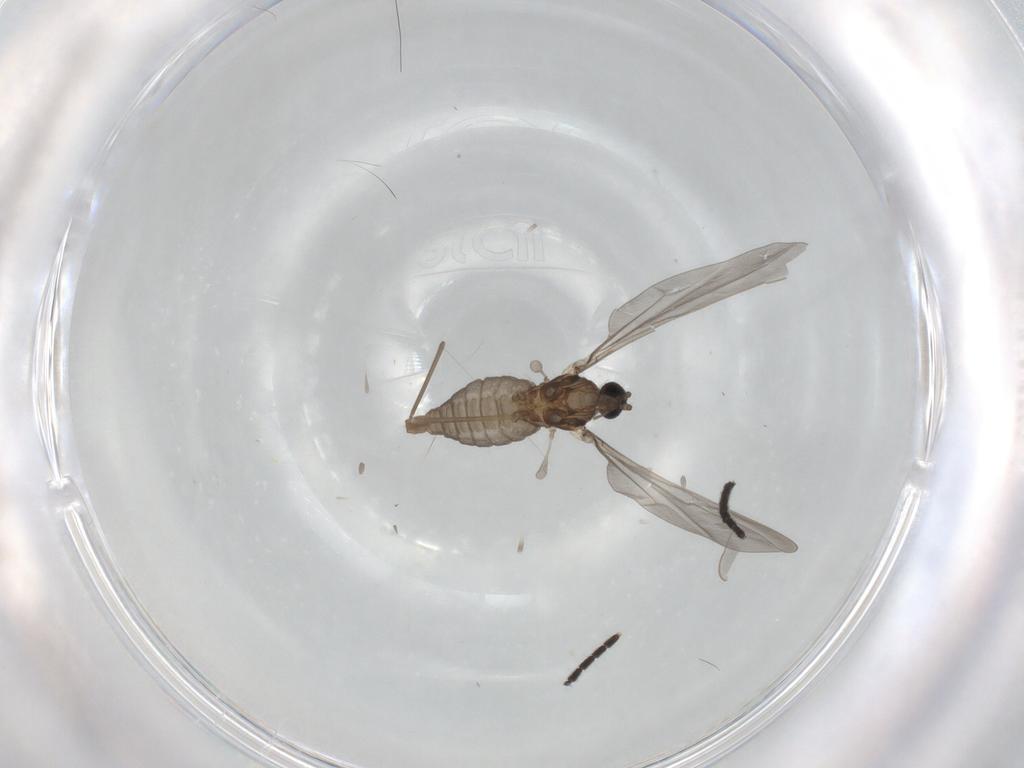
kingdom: Animalia
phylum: Arthropoda
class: Insecta
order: Diptera
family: Cecidomyiidae
